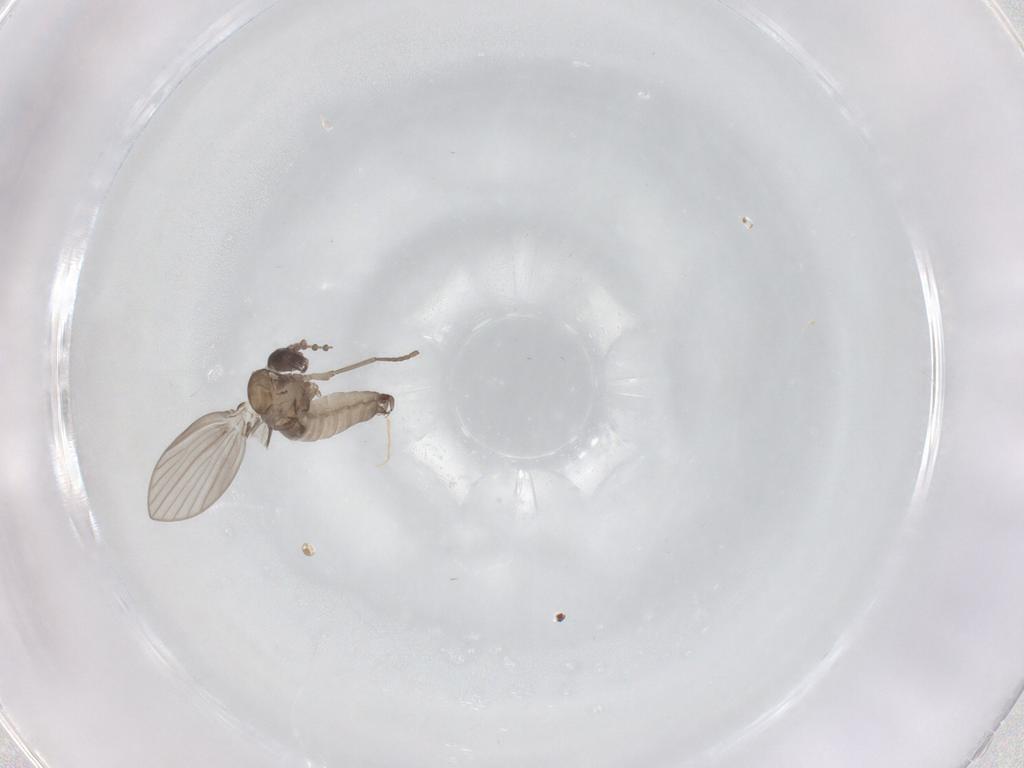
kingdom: Animalia
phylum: Arthropoda
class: Insecta
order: Diptera
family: Psychodidae
